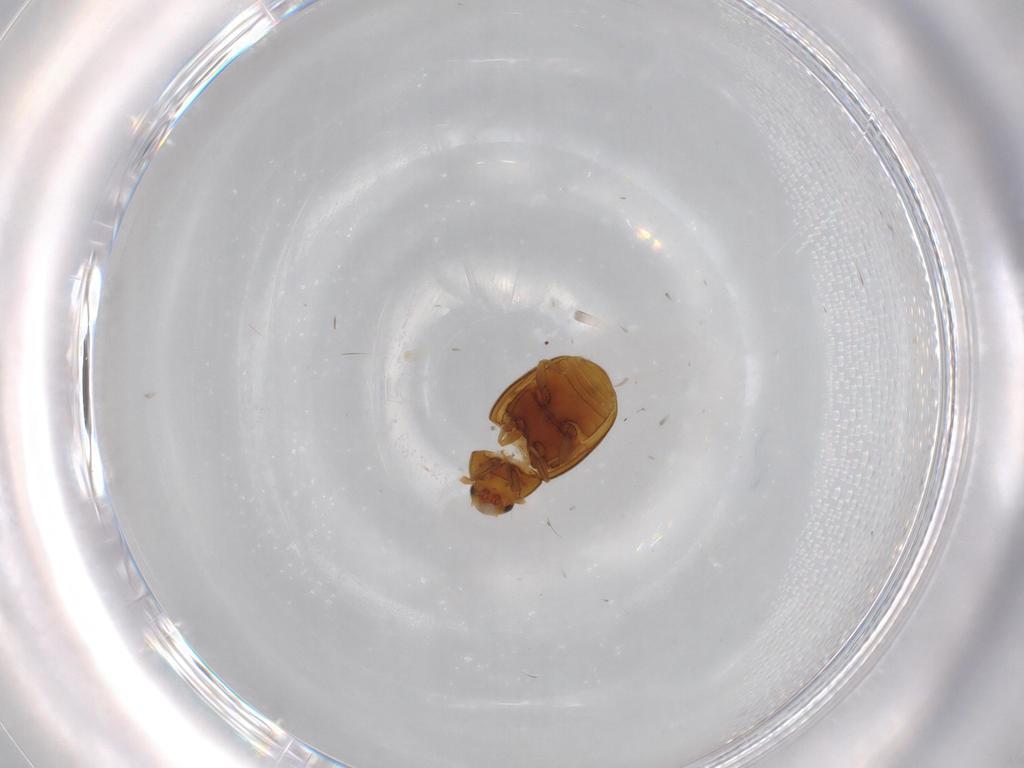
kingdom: Animalia
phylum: Arthropoda
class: Insecta
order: Coleoptera
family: Coccinellidae
